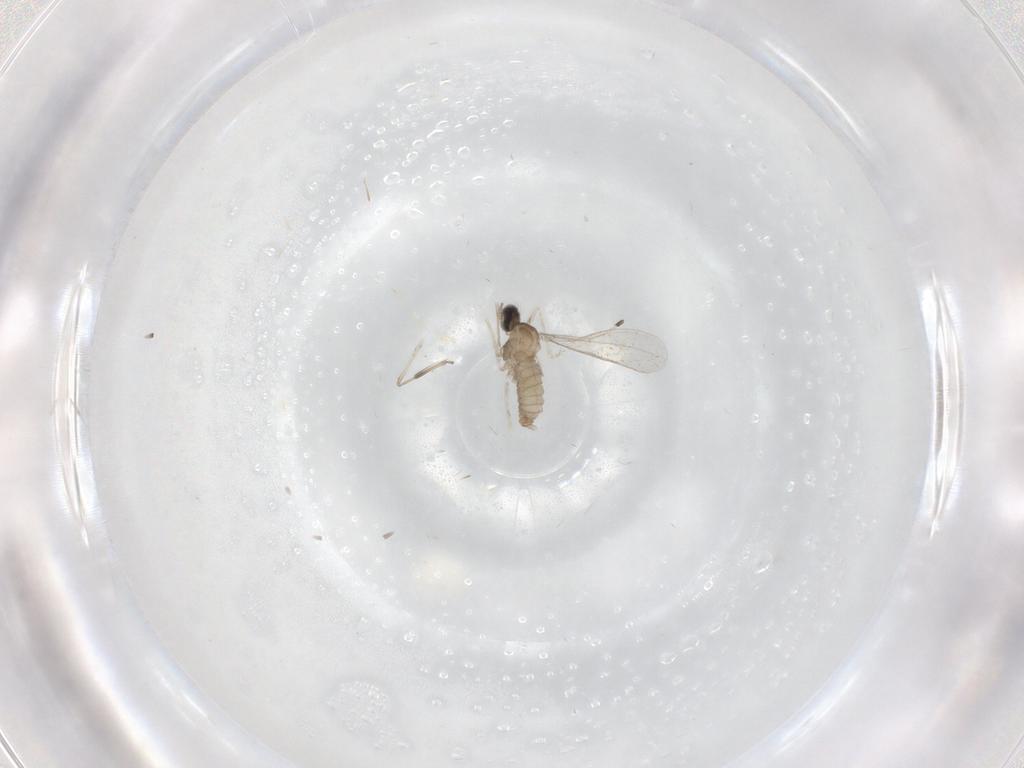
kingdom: Animalia
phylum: Arthropoda
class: Insecta
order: Diptera
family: Cecidomyiidae
